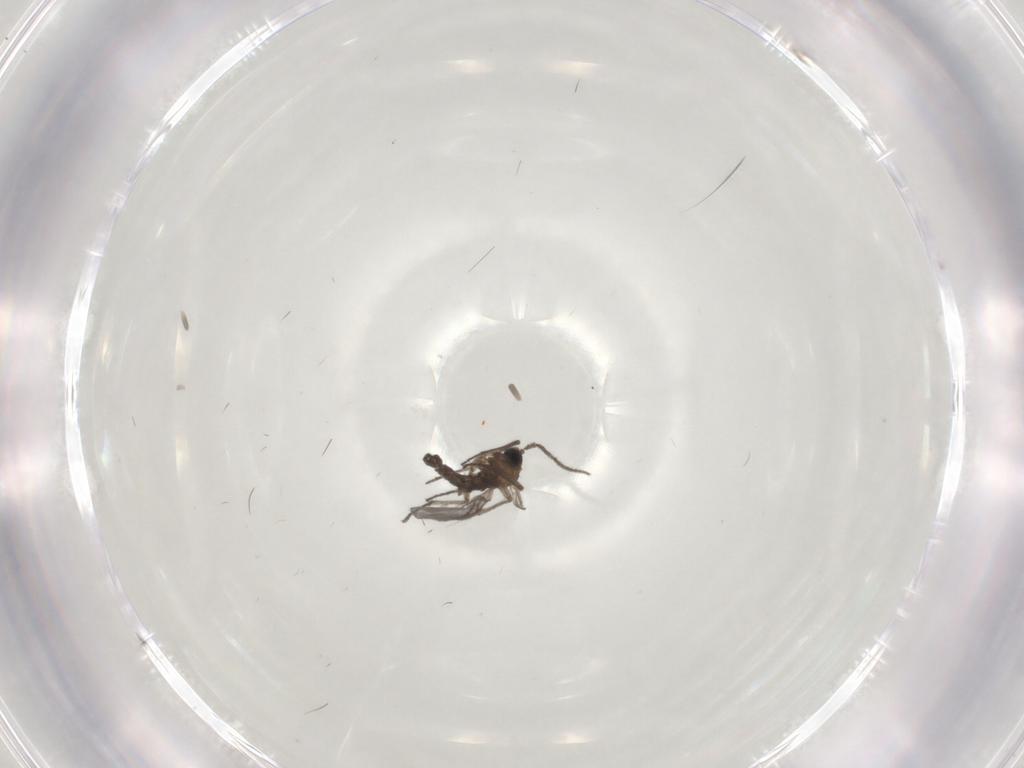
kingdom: Animalia
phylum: Arthropoda
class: Insecta
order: Diptera
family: Sciaridae
